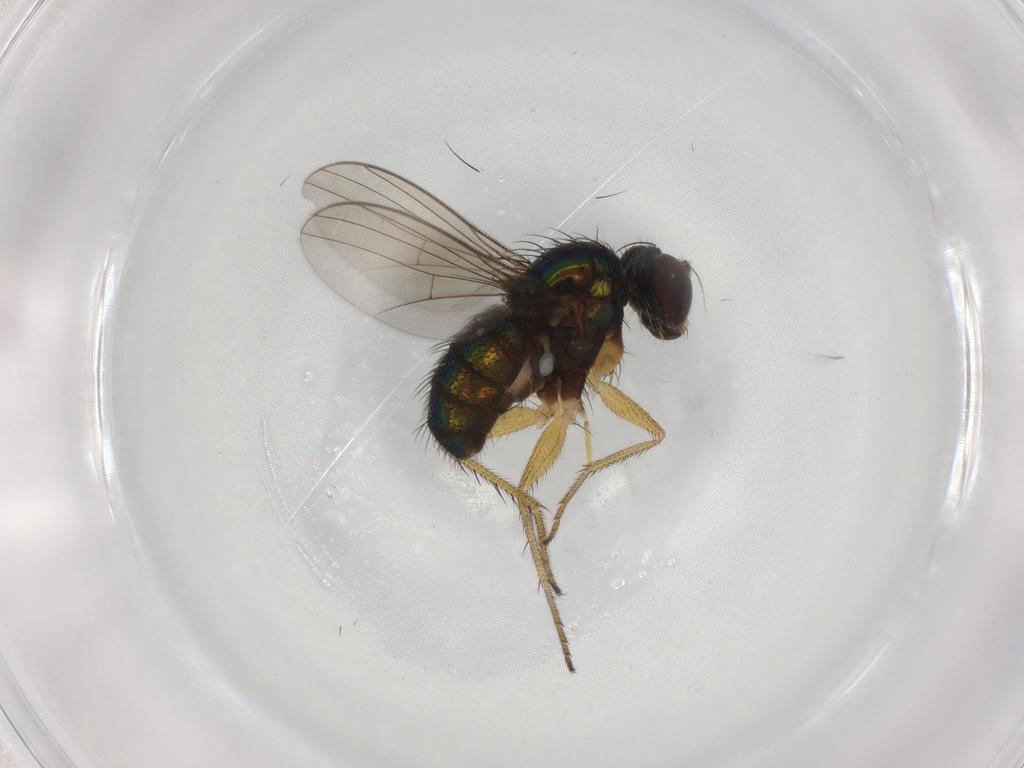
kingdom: Animalia
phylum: Arthropoda
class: Insecta
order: Diptera
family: Dolichopodidae
